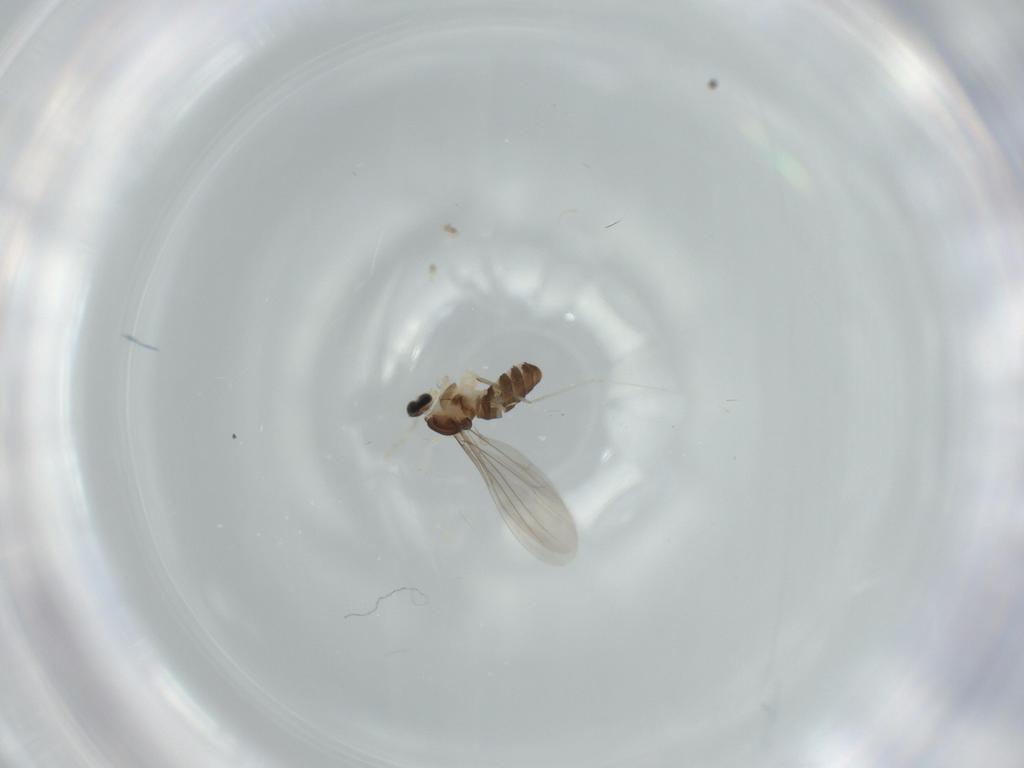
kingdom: Animalia
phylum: Arthropoda
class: Insecta
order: Diptera
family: Cecidomyiidae
